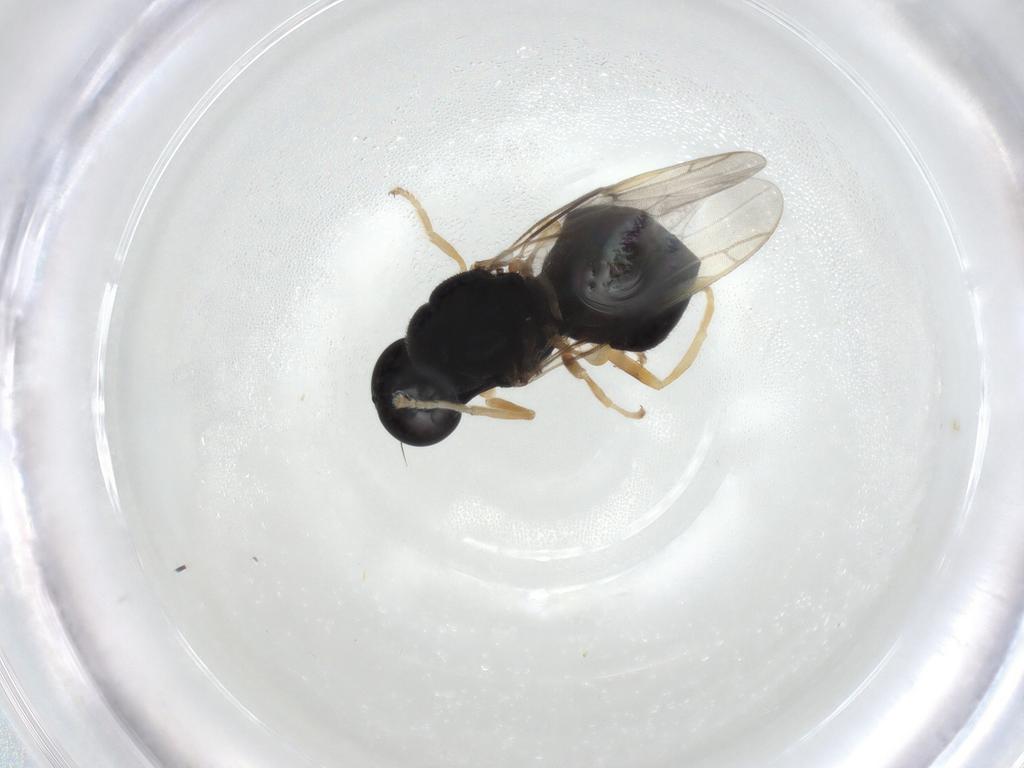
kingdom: Animalia
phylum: Arthropoda
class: Insecta
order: Diptera
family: Stratiomyidae
